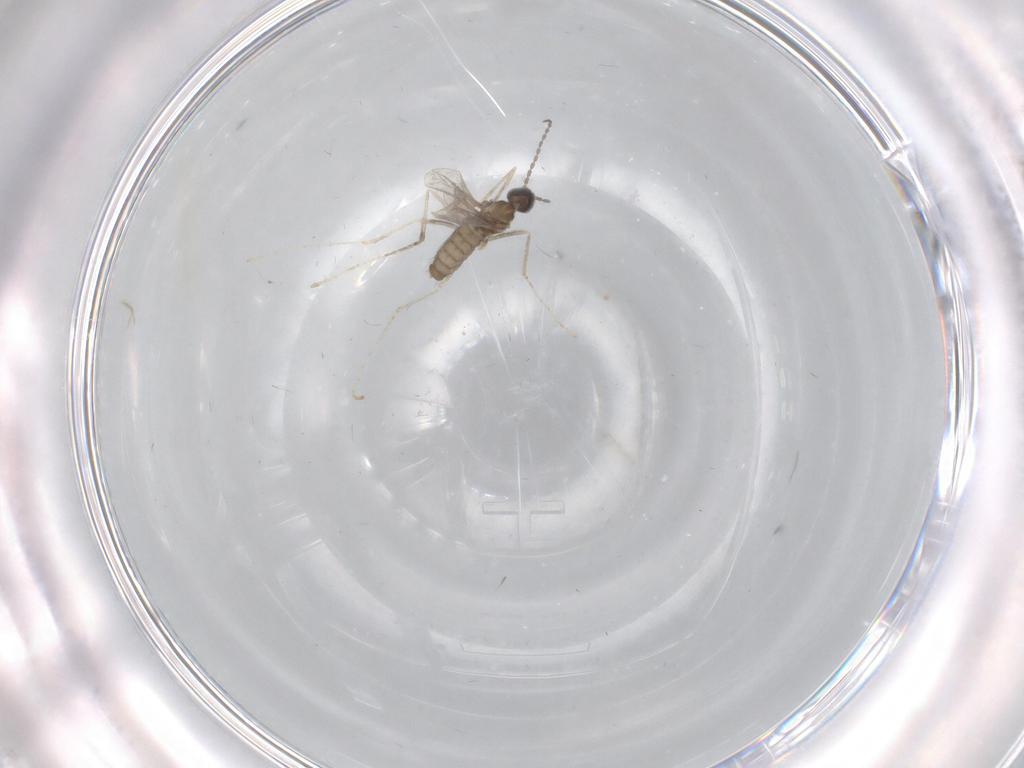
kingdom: Animalia
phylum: Arthropoda
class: Insecta
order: Diptera
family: Cecidomyiidae
